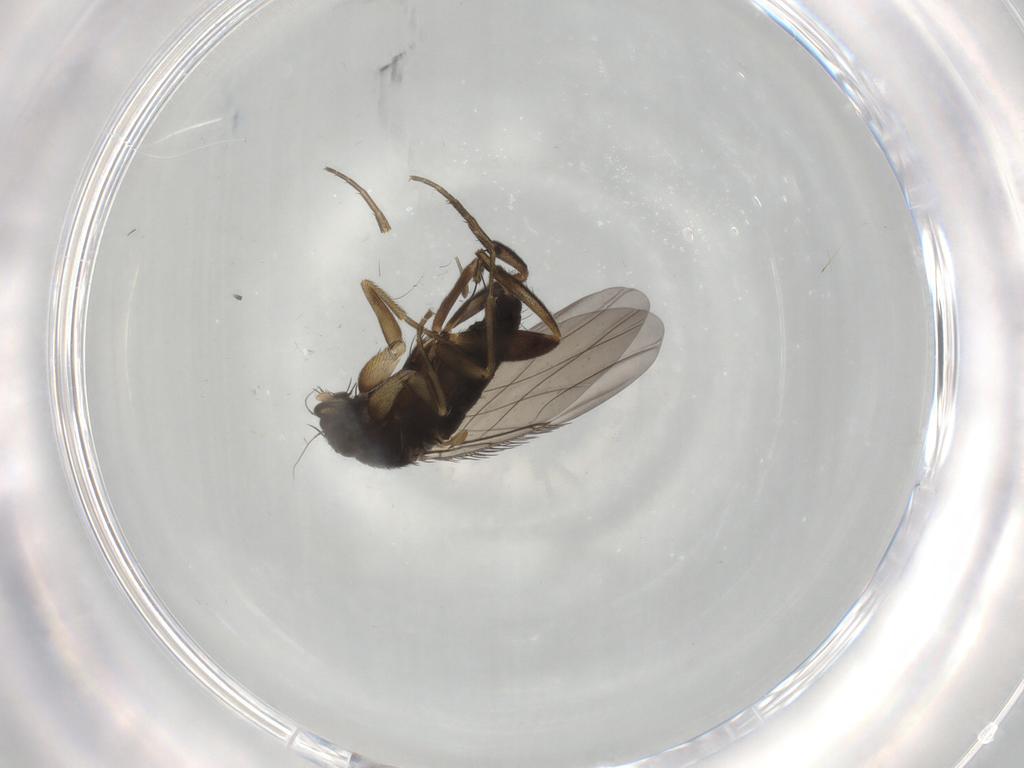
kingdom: Animalia
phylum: Arthropoda
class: Insecta
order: Diptera
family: Phoridae
